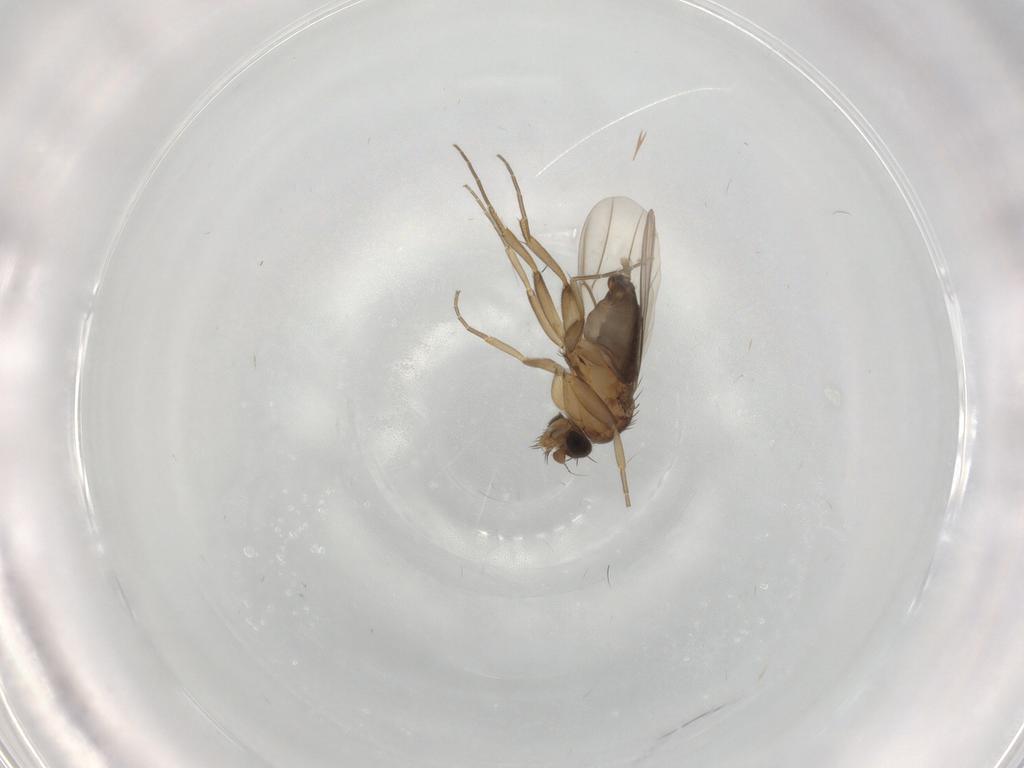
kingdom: Animalia
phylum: Arthropoda
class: Insecta
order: Diptera
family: Phoridae
